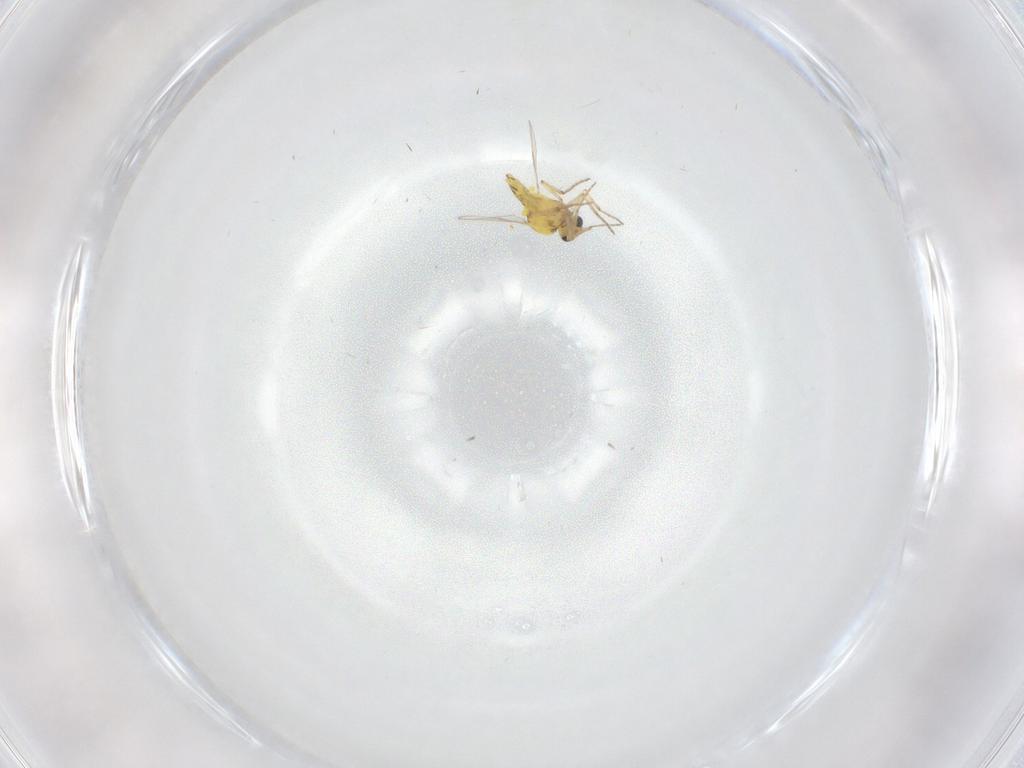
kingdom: Animalia
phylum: Arthropoda
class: Insecta
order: Diptera
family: Ceratopogonidae
